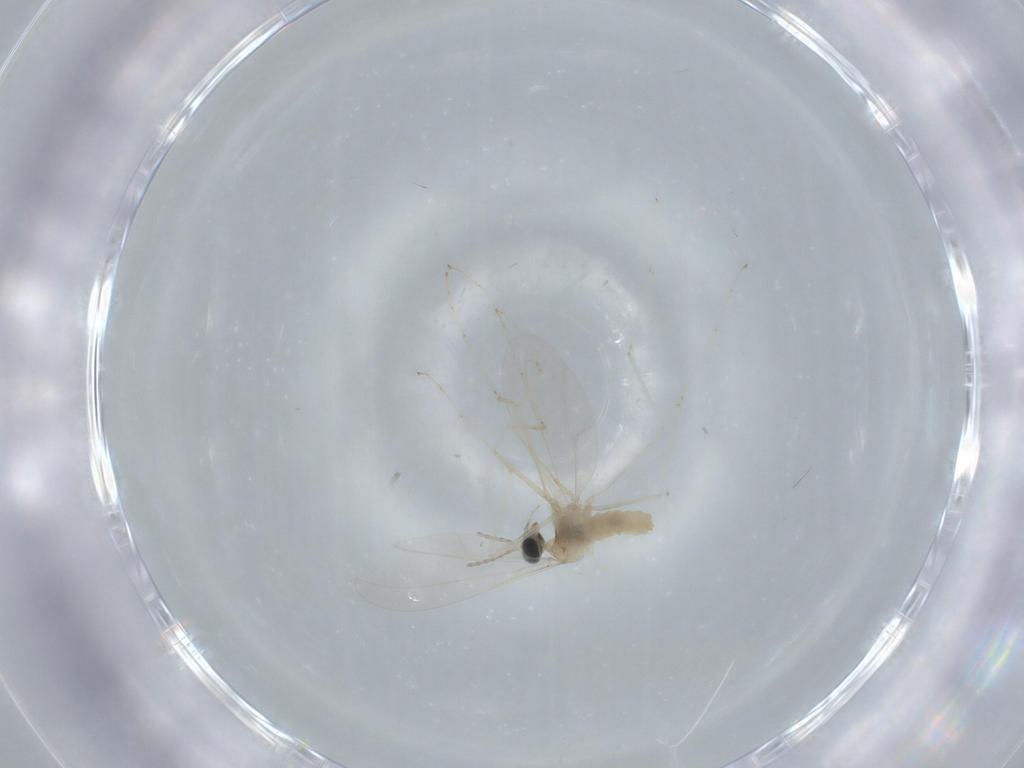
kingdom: Animalia
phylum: Arthropoda
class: Insecta
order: Diptera
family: Cecidomyiidae
